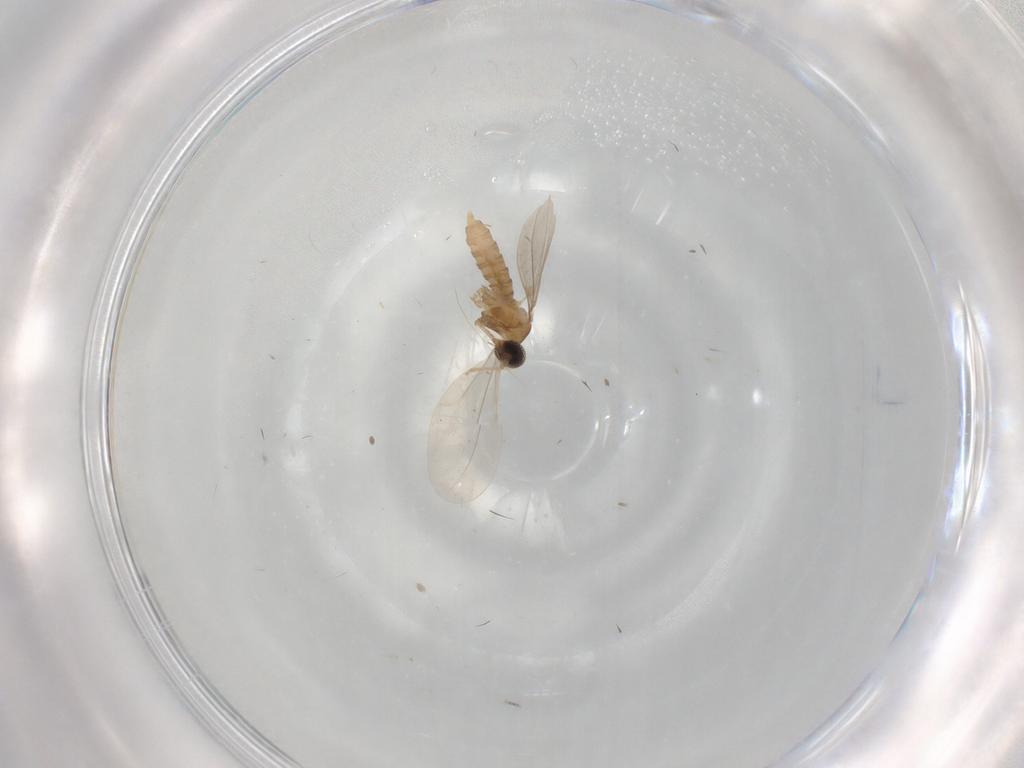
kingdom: Animalia
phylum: Arthropoda
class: Insecta
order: Diptera
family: Cecidomyiidae
